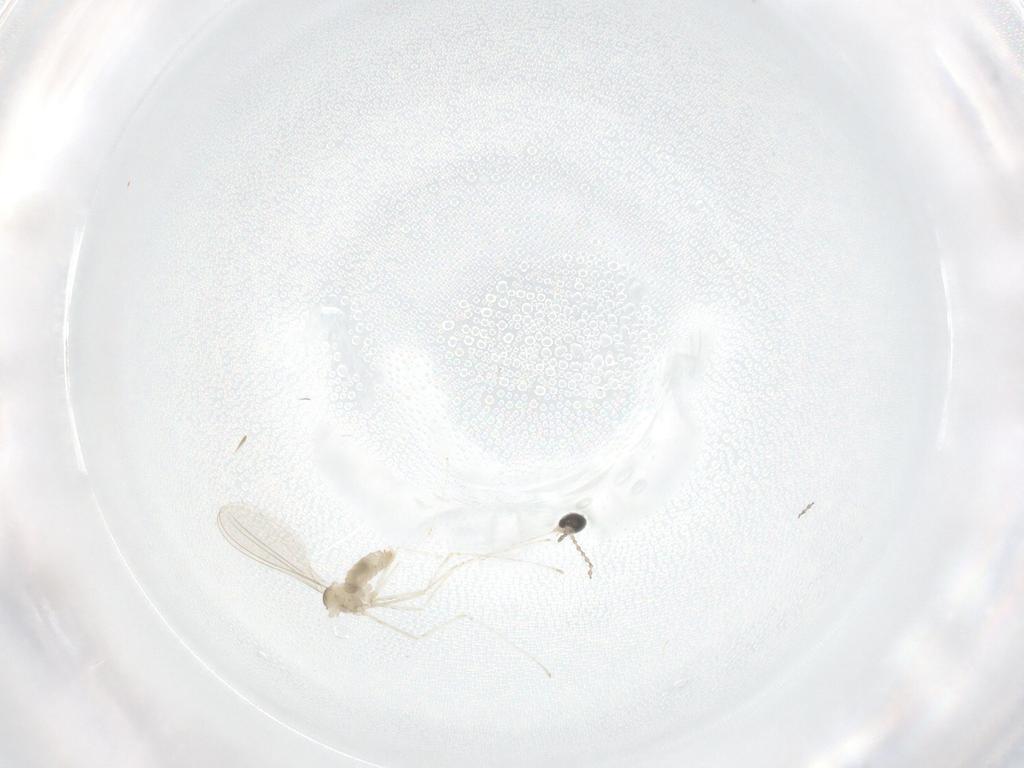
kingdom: Animalia
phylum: Arthropoda
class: Insecta
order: Diptera
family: Cecidomyiidae
